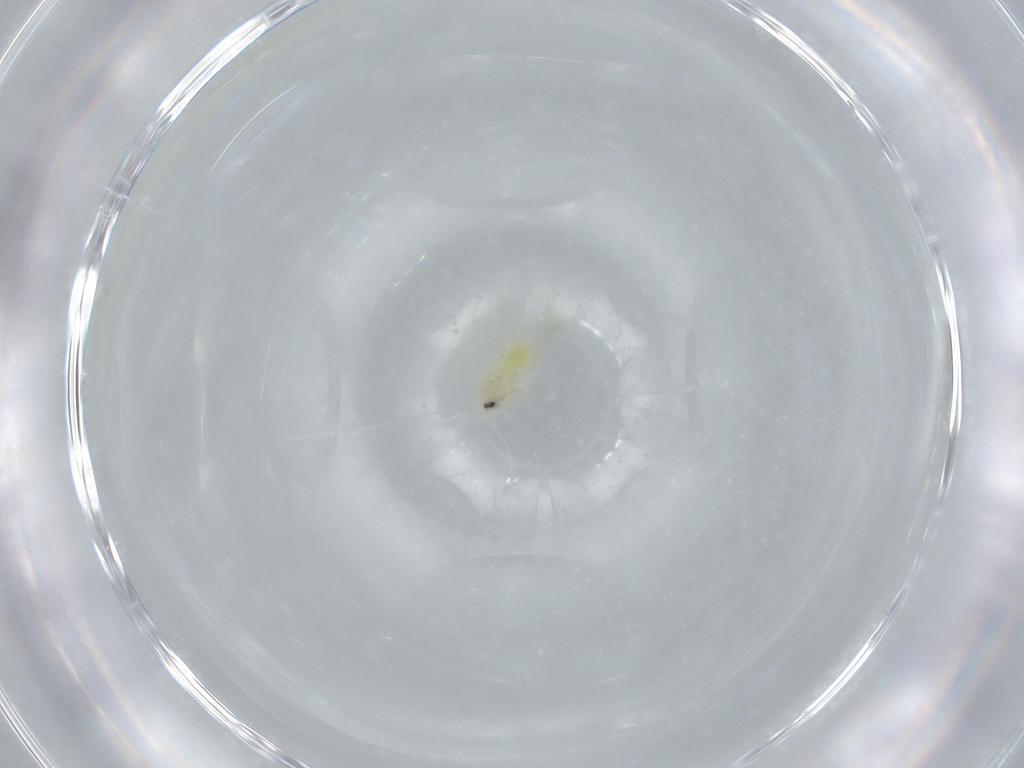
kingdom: Animalia
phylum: Arthropoda
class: Insecta
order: Hemiptera
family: Aleyrodidae
